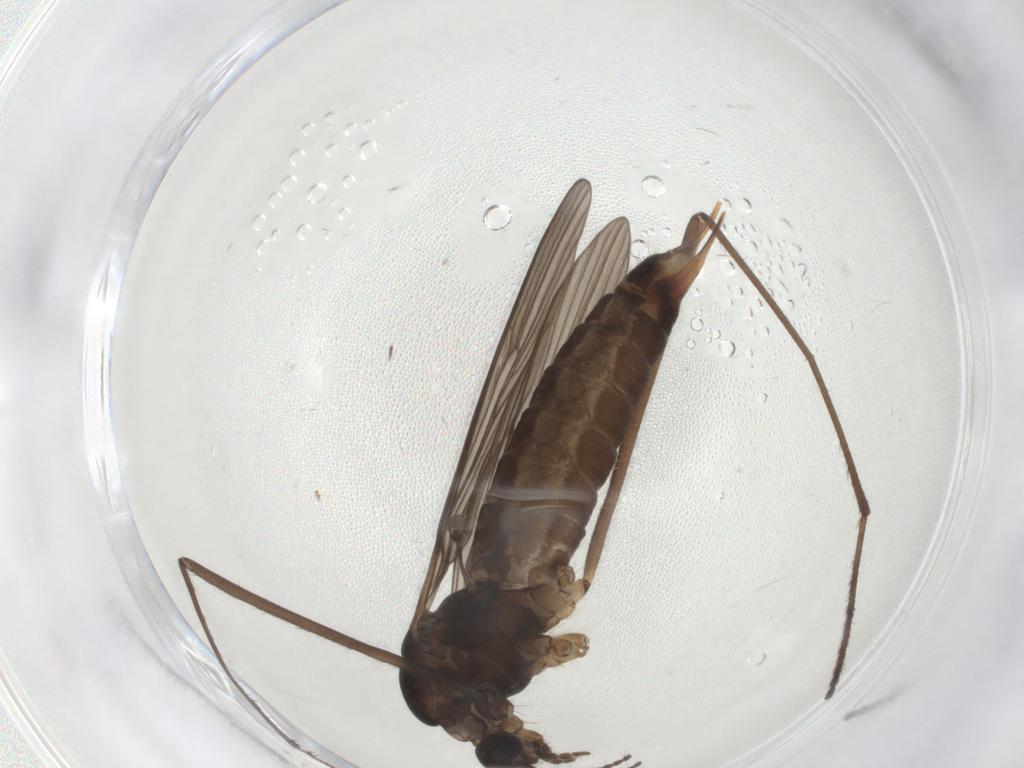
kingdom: Animalia
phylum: Arthropoda
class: Insecta
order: Diptera
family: Limoniidae
